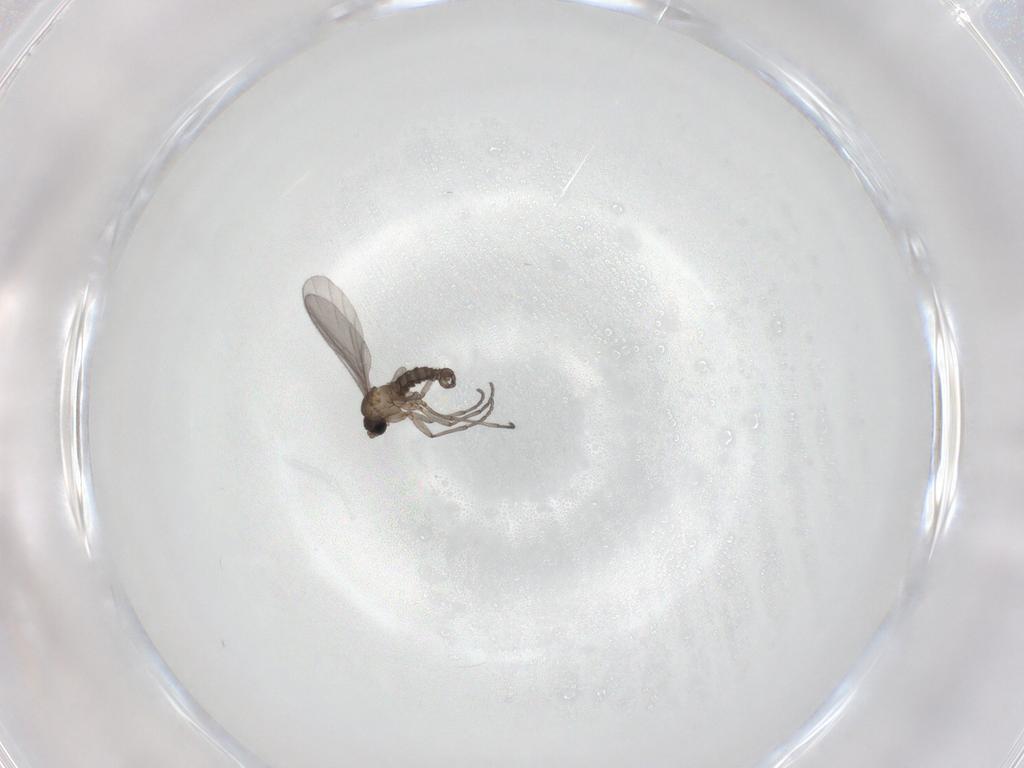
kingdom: Animalia
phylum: Arthropoda
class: Insecta
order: Diptera
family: Sciaridae
